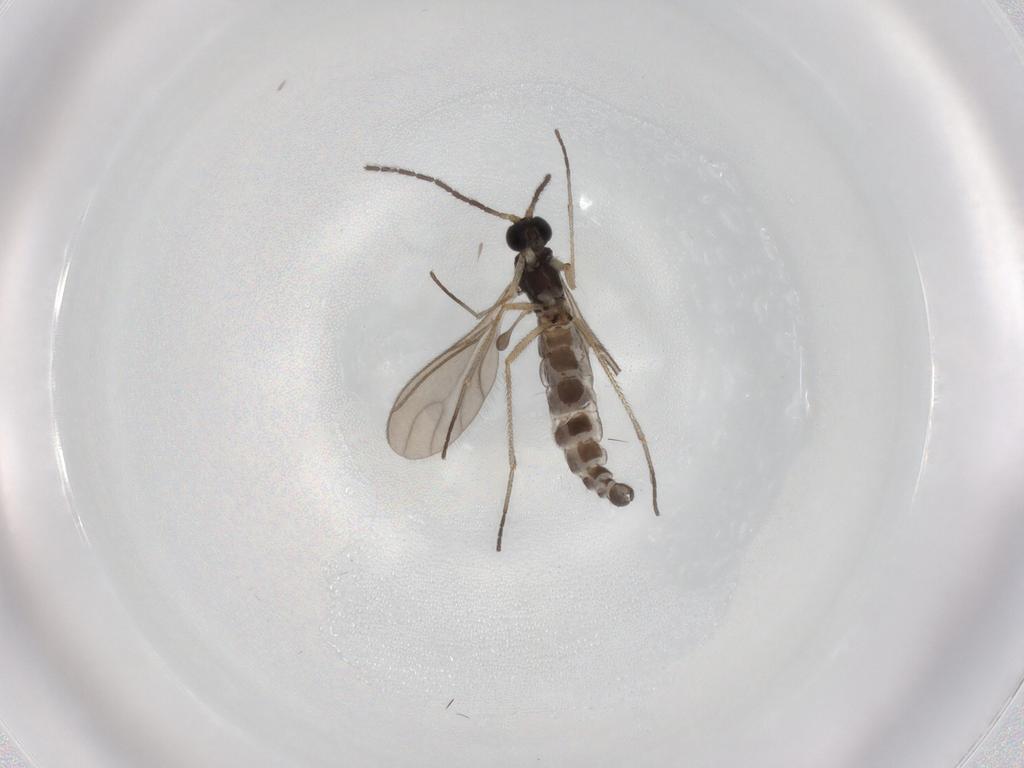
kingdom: Animalia
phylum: Arthropoda
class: Insecta
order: Diptera
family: Sciaridae
